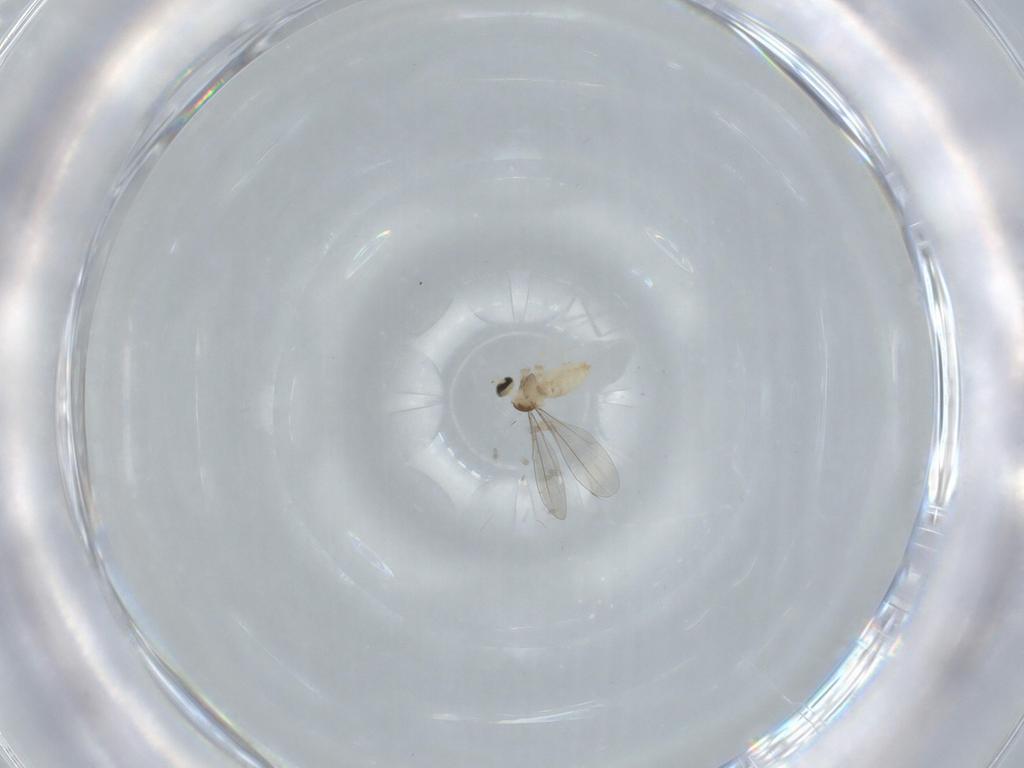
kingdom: Animalia
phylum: Arthropoda
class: Insecta
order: Diptera
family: Cecidomyiidae
